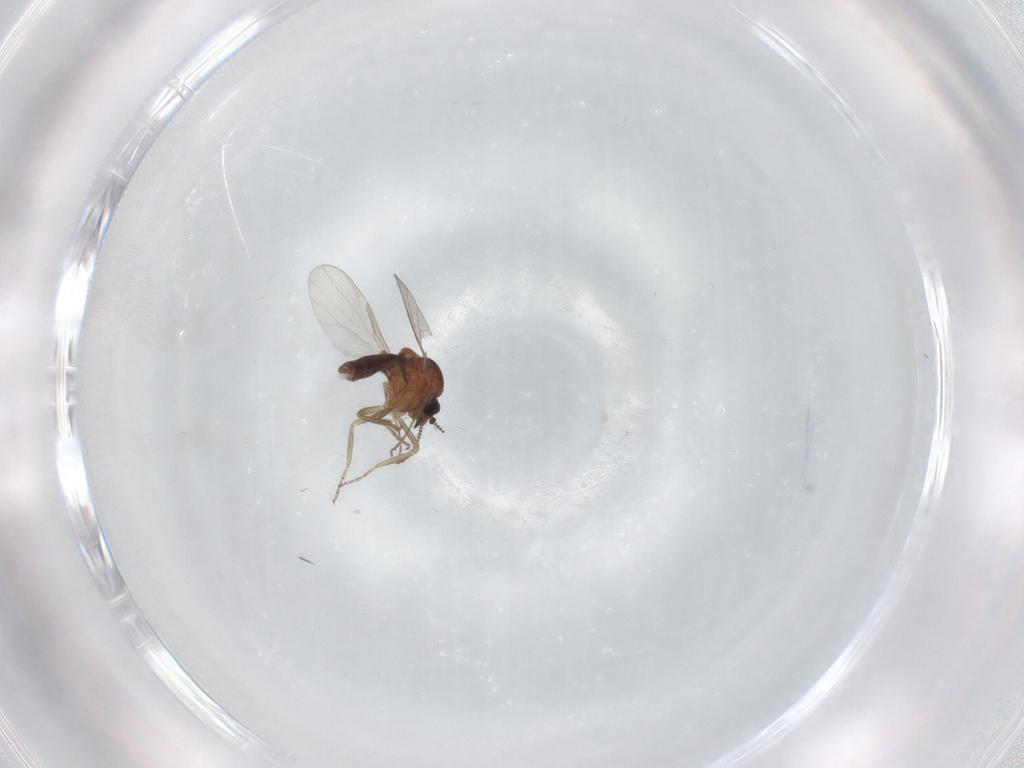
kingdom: Animalia
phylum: Arthropoda
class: Insecta
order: Diptera
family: Ceratopogonidae
